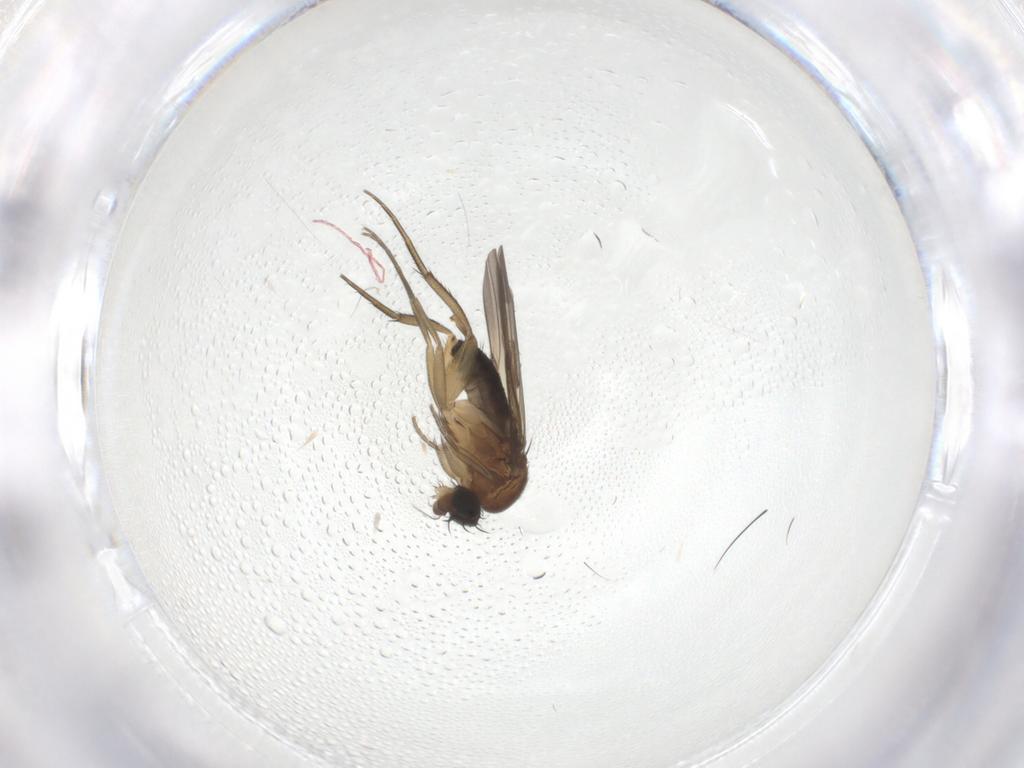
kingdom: Animalia
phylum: Arthropoda
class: Insecta
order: Diptera
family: Phoridae
